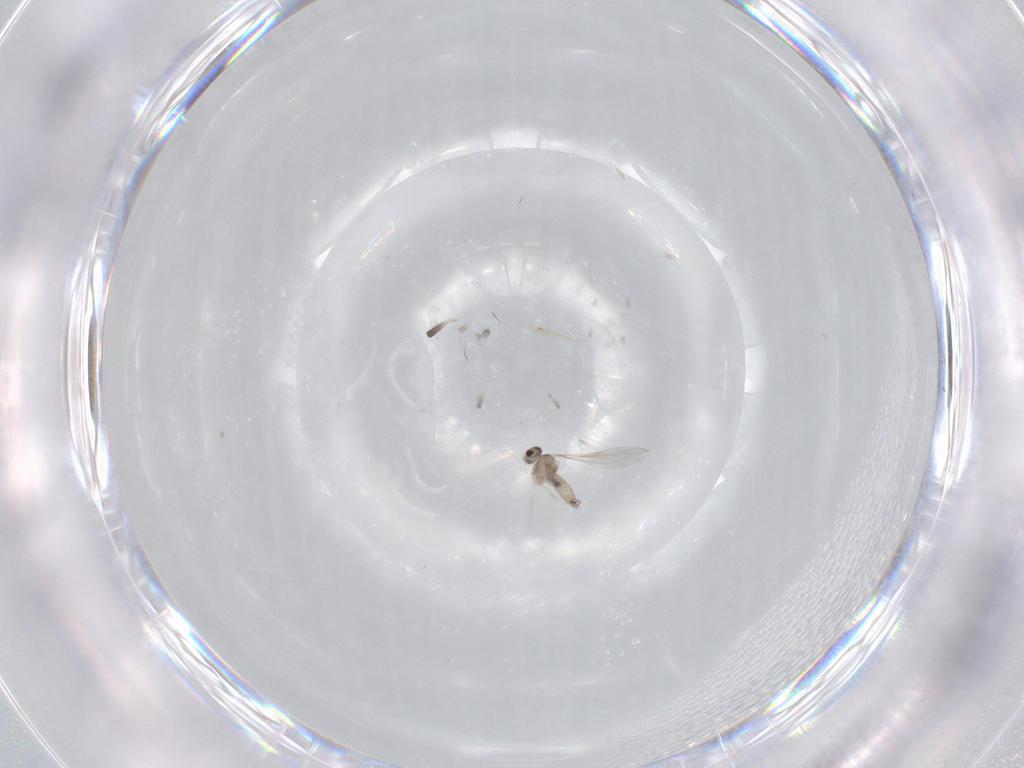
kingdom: Animalia
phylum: Arthropoda
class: Insecta
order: Diptera
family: Cecidomyiidae
